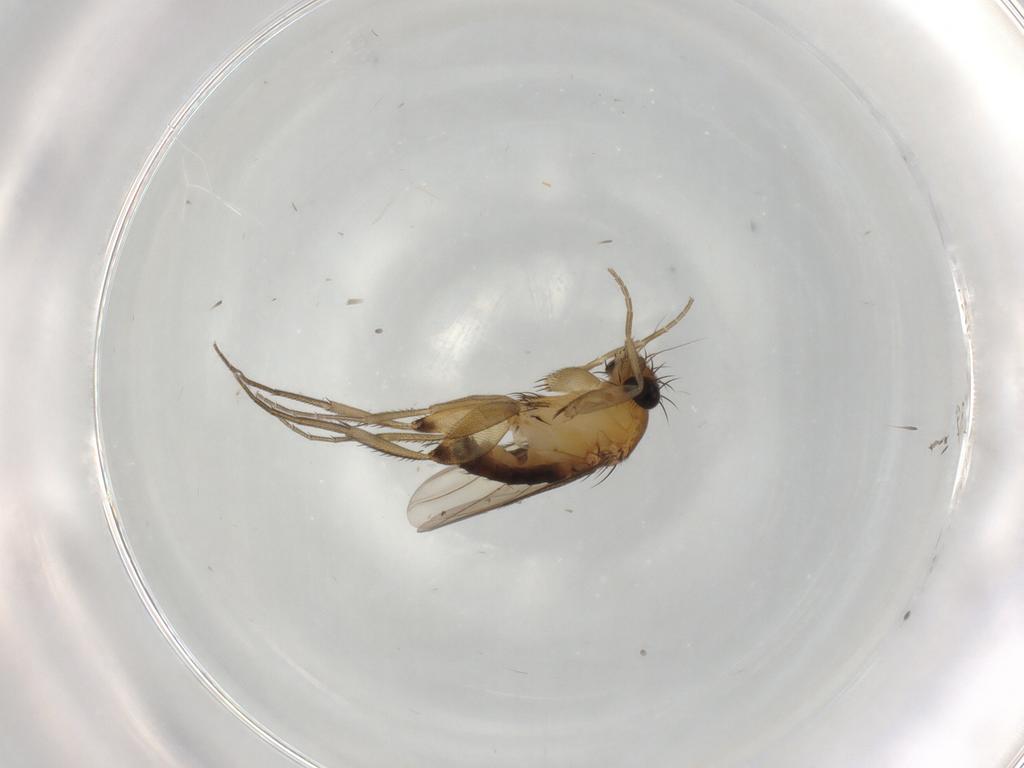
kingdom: Animalia
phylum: Arthropoda
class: Insecta
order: Diptera
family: Phoridae
